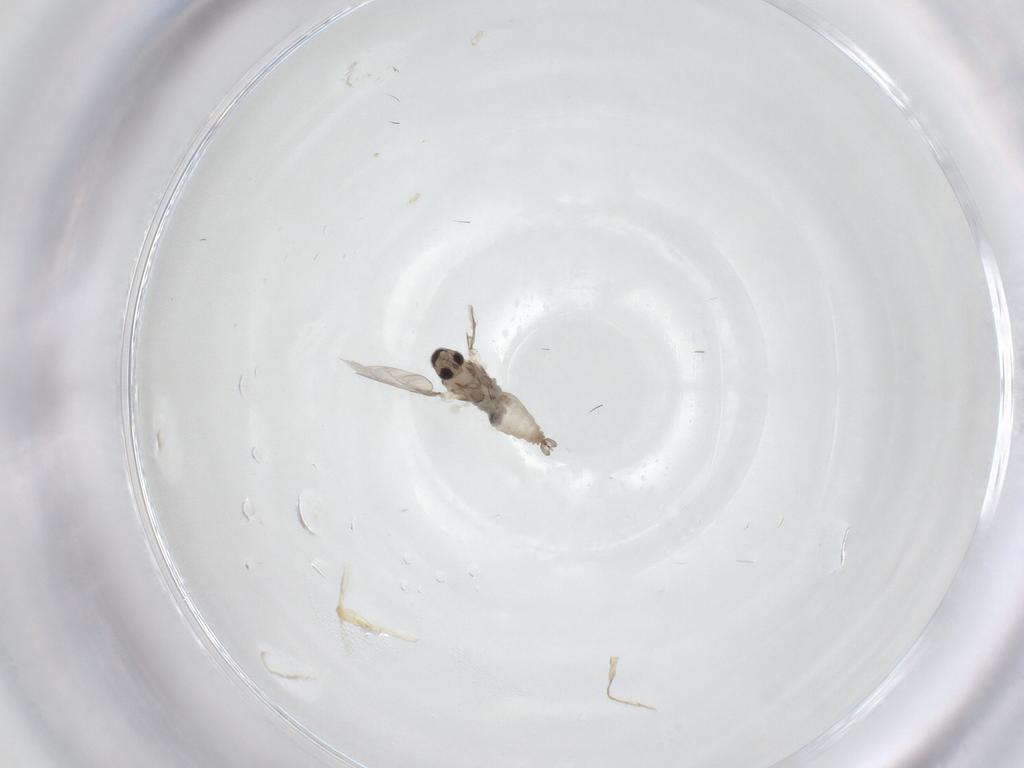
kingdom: Animalia
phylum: Arthropoda
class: Insecta
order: Diptera
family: Cecidomyiidae
